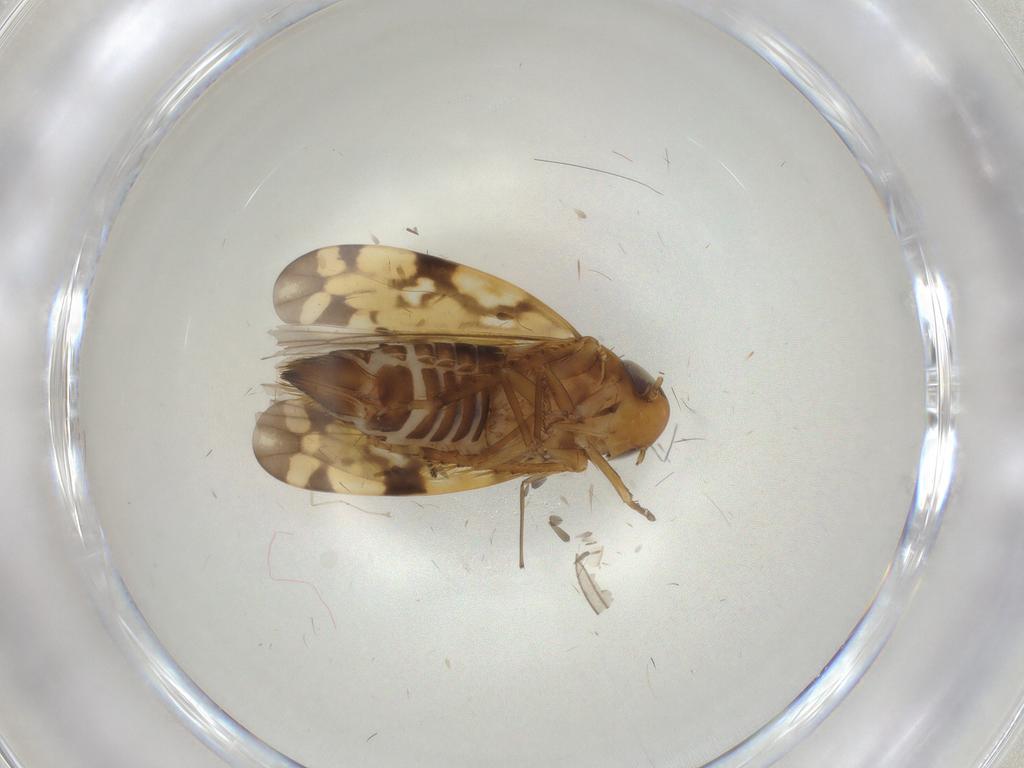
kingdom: Animalia
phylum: Arthropoda
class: Insecta
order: Hemiptera
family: Cicadellidae
